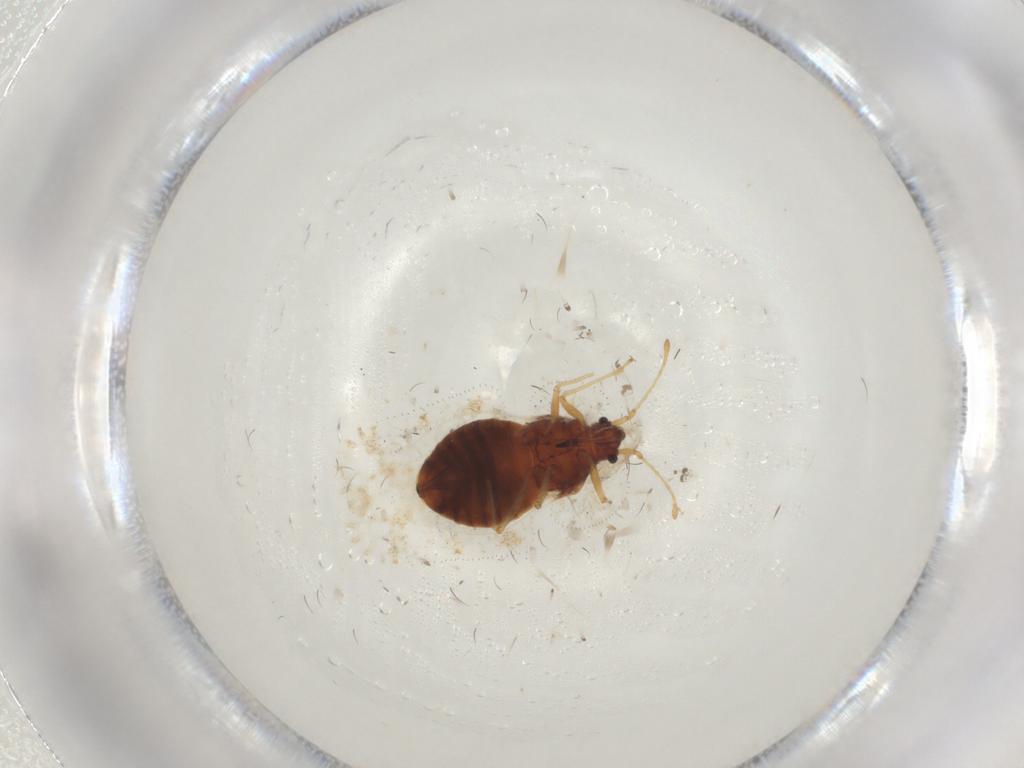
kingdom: Animalia
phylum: Arthropoda
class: Insecta
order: Hemiptera
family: Tingidae
